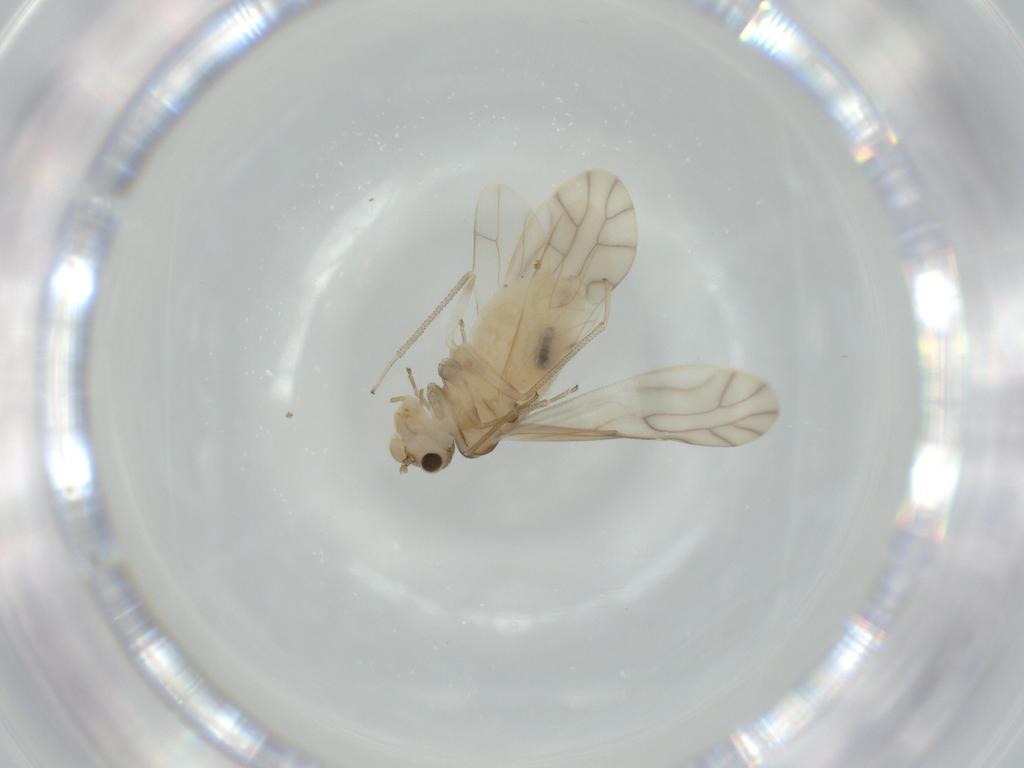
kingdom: Animalia
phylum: Arthropoda
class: Insecta
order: Psocodea
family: Caeciliusidae
